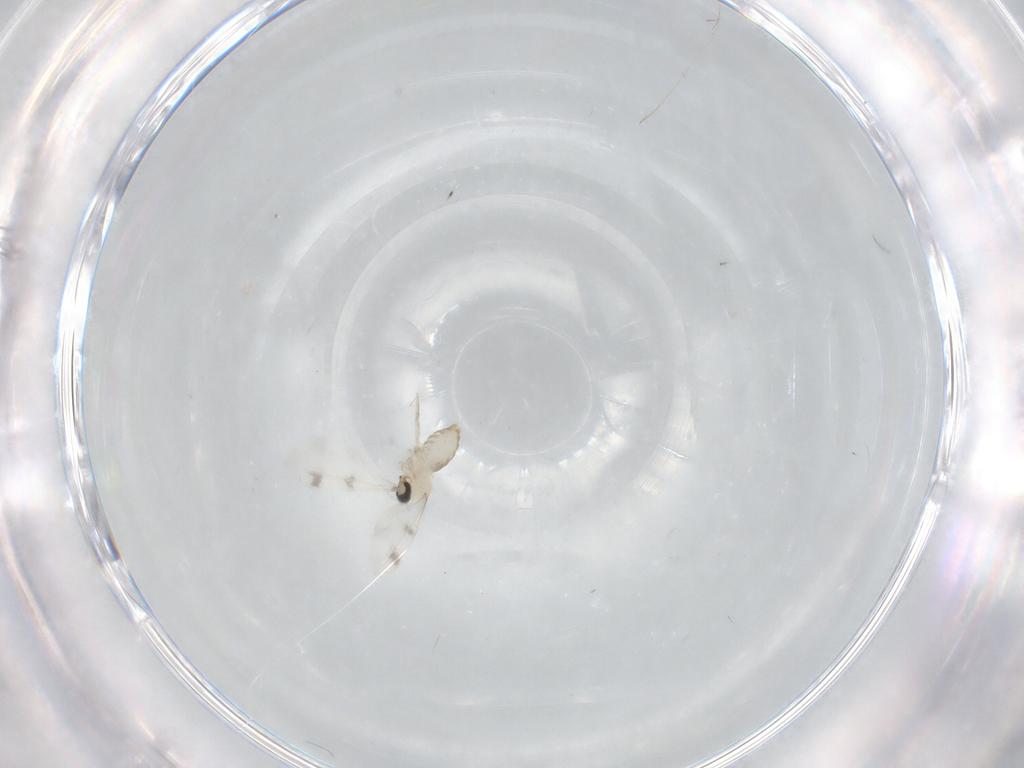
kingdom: Animalia
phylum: Arthropoda
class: Insecta
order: Diptera
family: Cecidomyiidae
